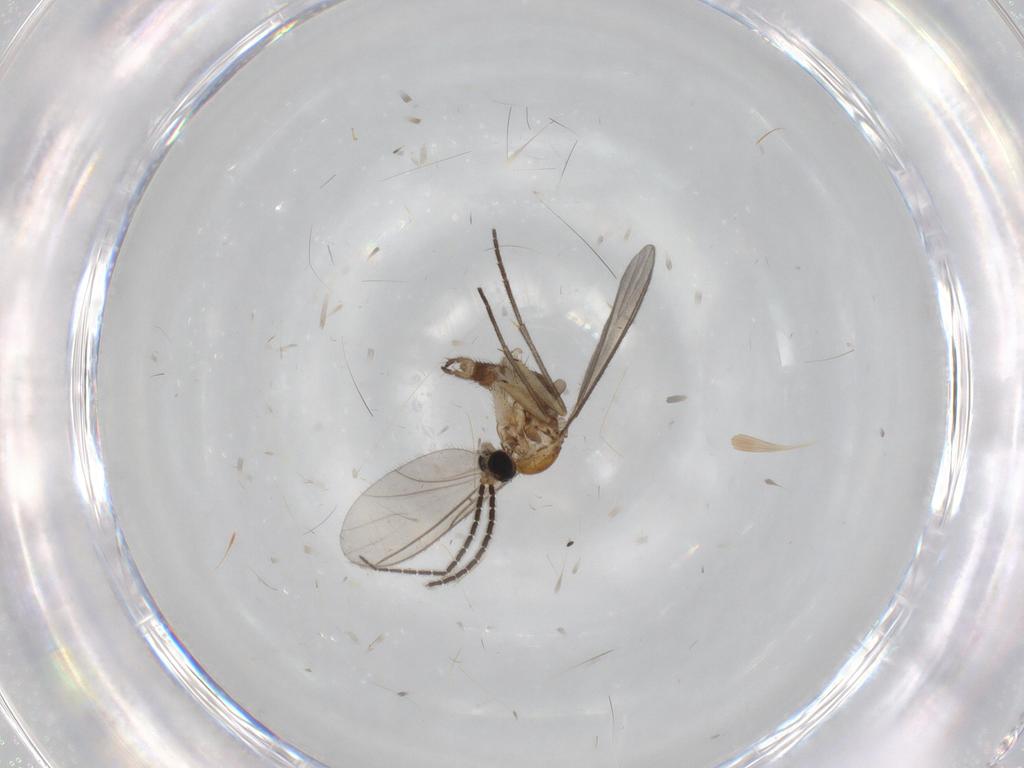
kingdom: Animalia
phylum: Arthropoda
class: Insecta
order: Diptera
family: Sciaridae
